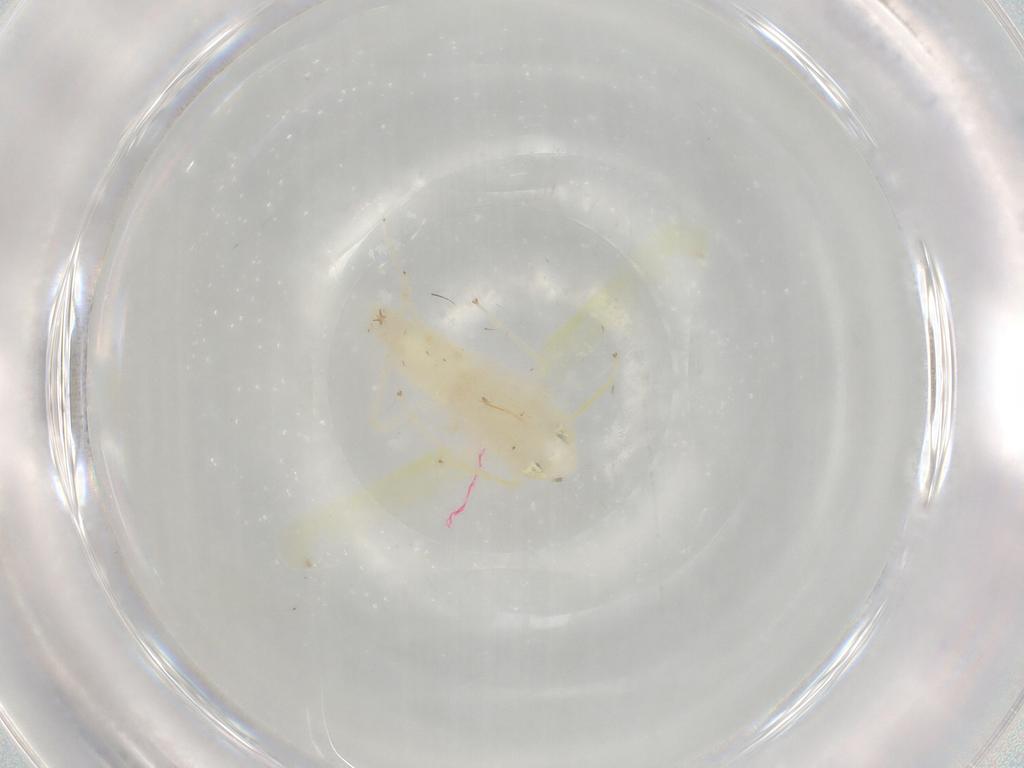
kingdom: Animalia
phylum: Arthropoda
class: Insecta
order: Hemiptera
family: Cicadellidae
